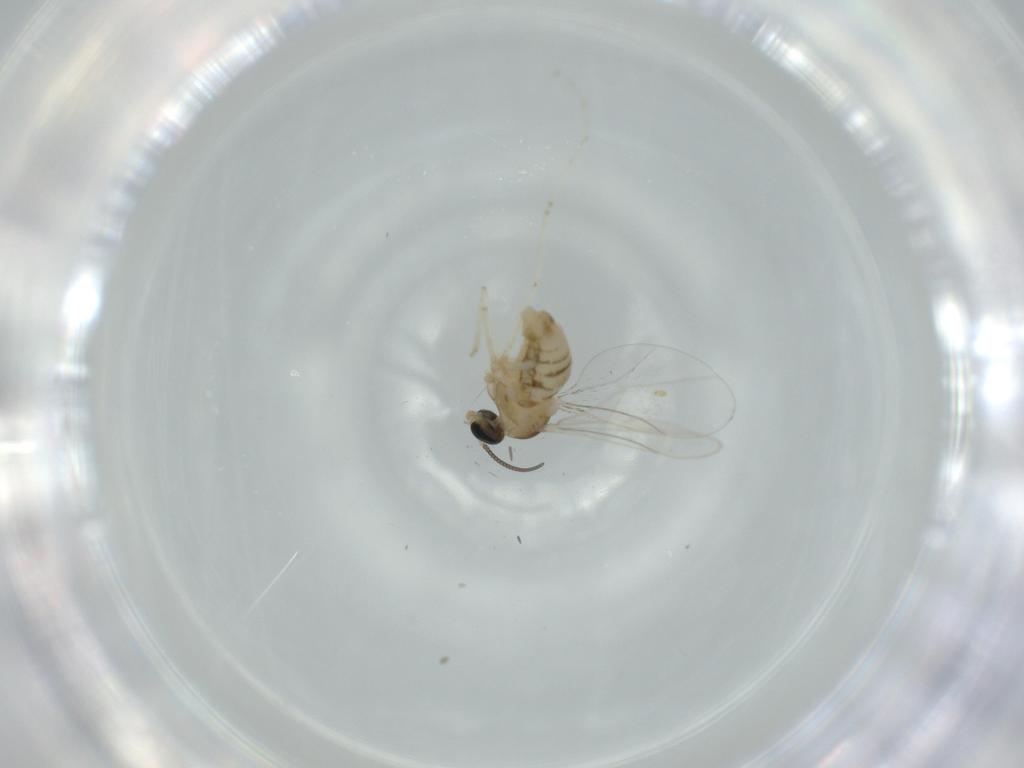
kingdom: Animalia
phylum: Arthropoda
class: Insecta
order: Diptera
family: Cecidomyiidae
